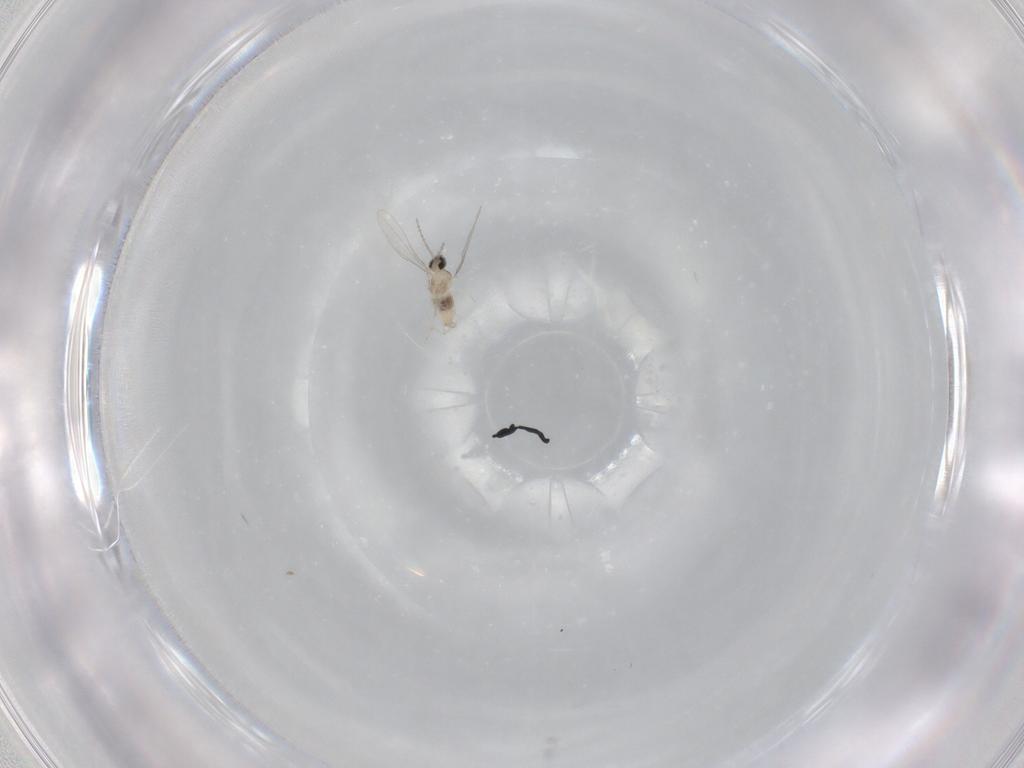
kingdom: Animalia
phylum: Arthropoda
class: Insecta
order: Diptera
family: Cecidomyiidae
